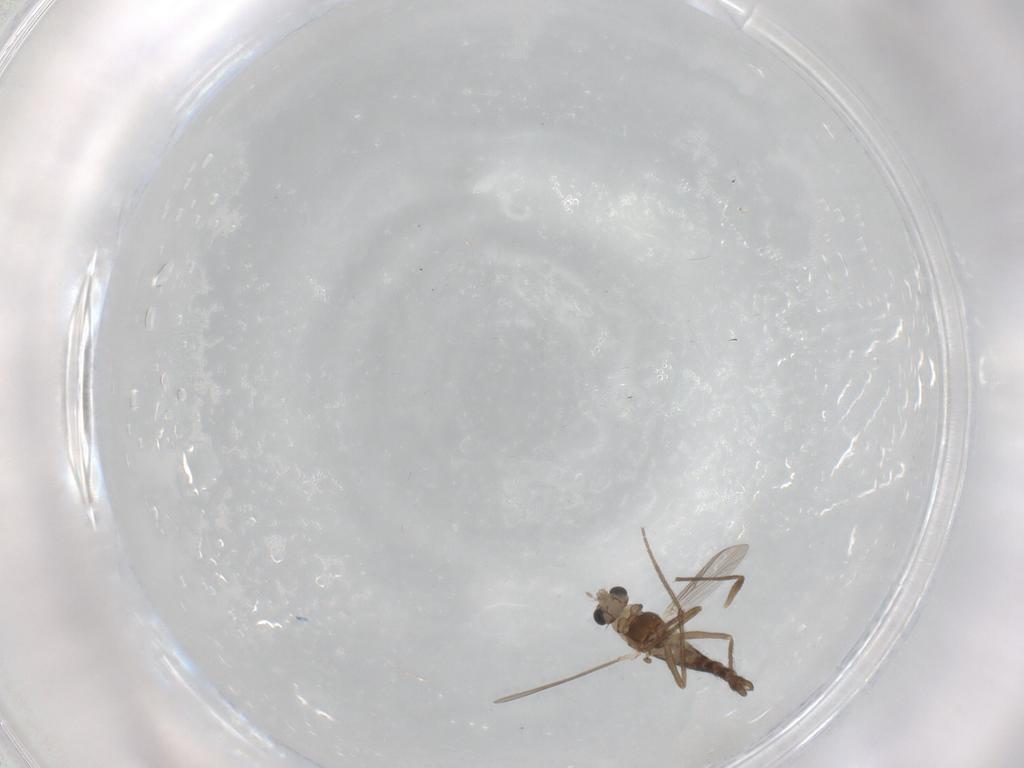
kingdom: Animalia
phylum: Arthropoda
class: Insecta
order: Diptera
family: Chironomidae
